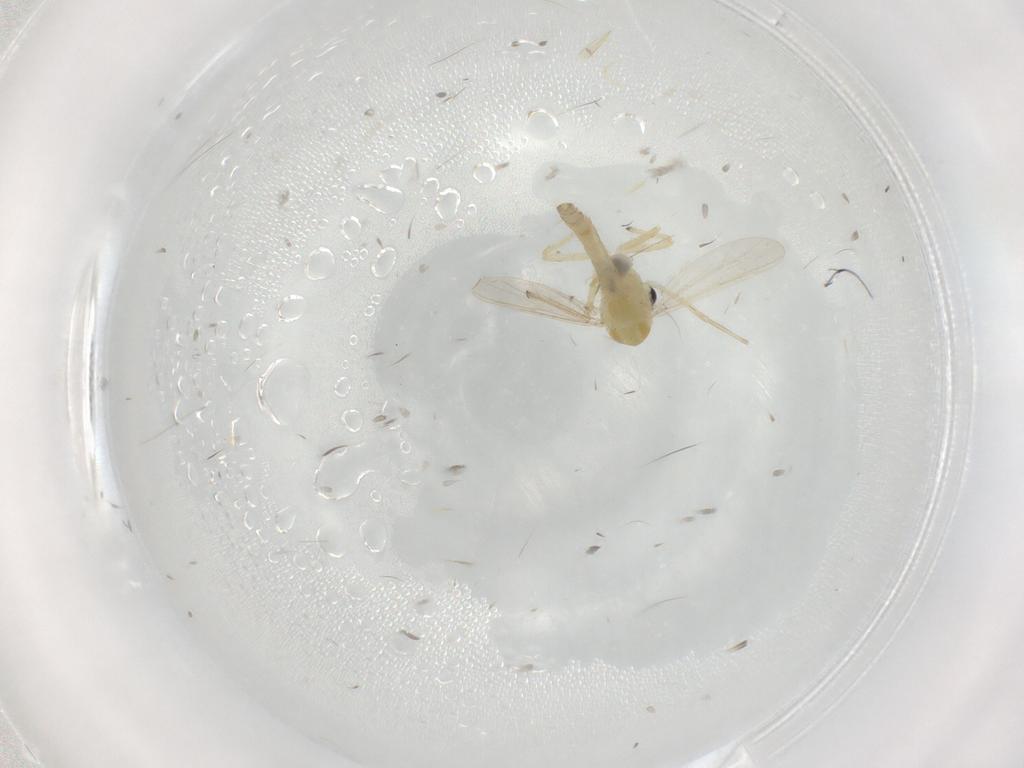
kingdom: Animalia
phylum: Arthropoda
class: Insecta
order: Diptera
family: Chironomidae
